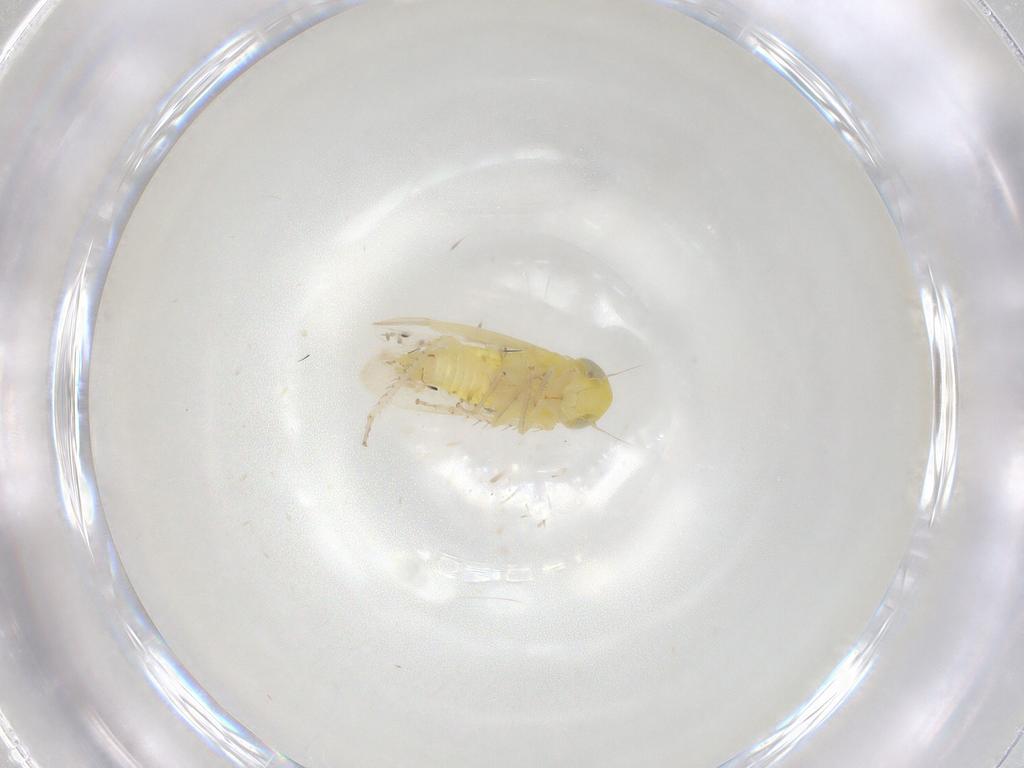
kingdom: Animalia
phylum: Arthropoda
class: Insecta
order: Hemiptera
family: Cicadellidae
